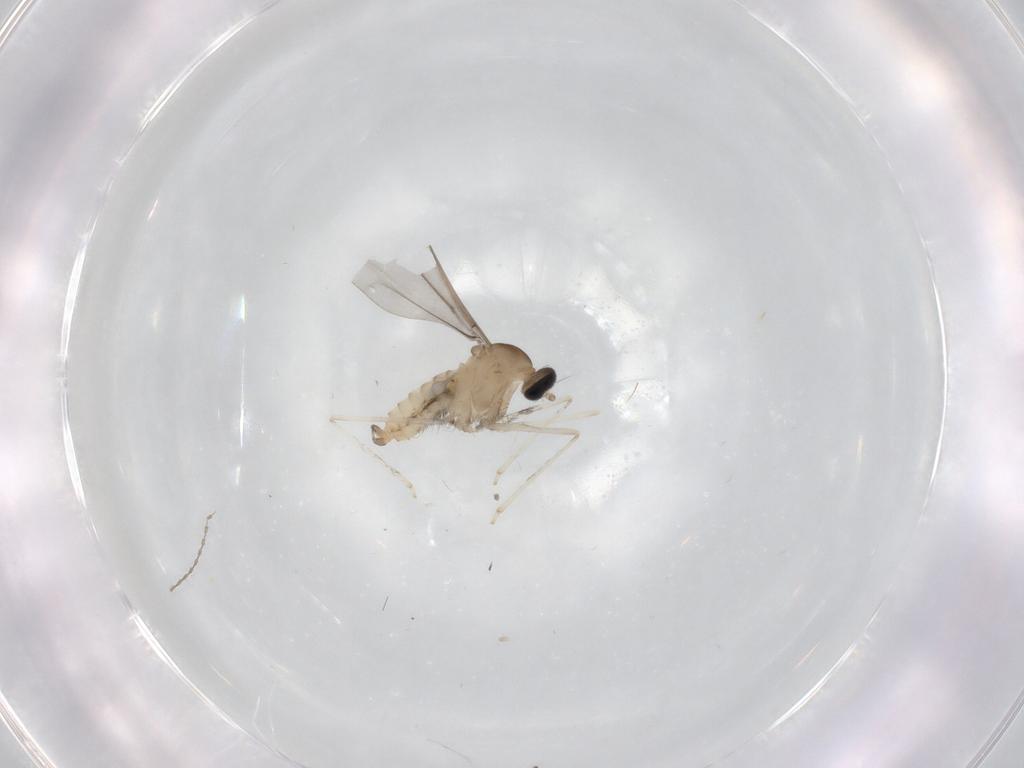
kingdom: Animalia
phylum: Arthropoda
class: Insecta
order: Diptera
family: Cecidomyiidae
